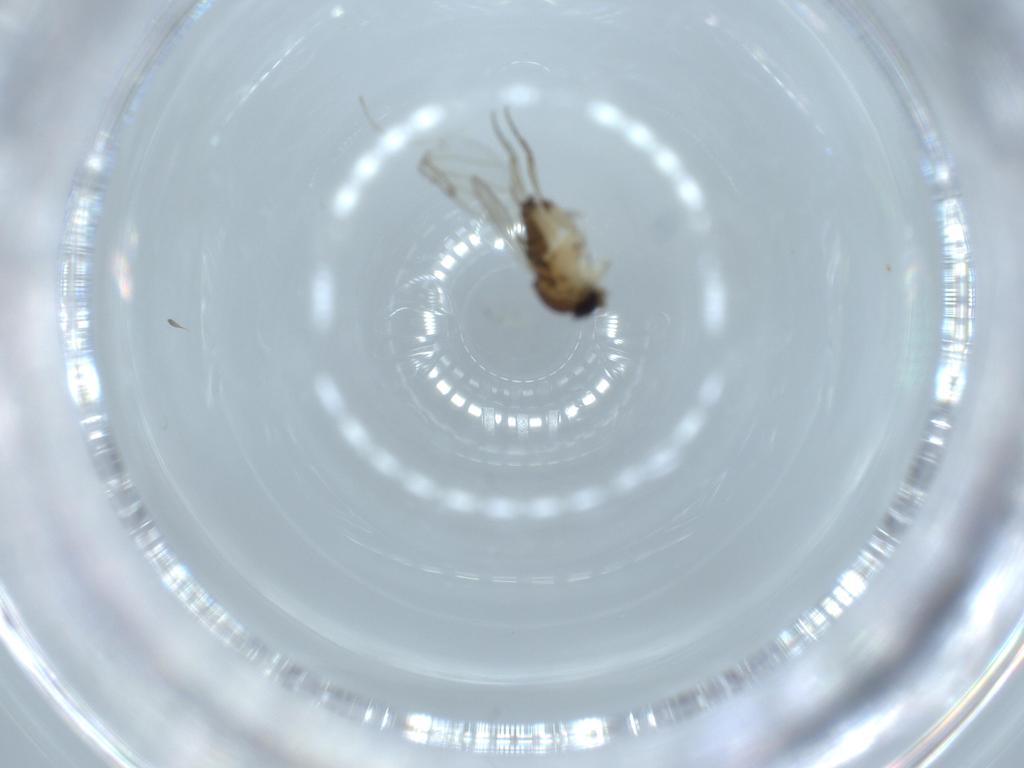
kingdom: Animalia
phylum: Arthropoda
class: Insecta
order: Diptera
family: Phoridae
